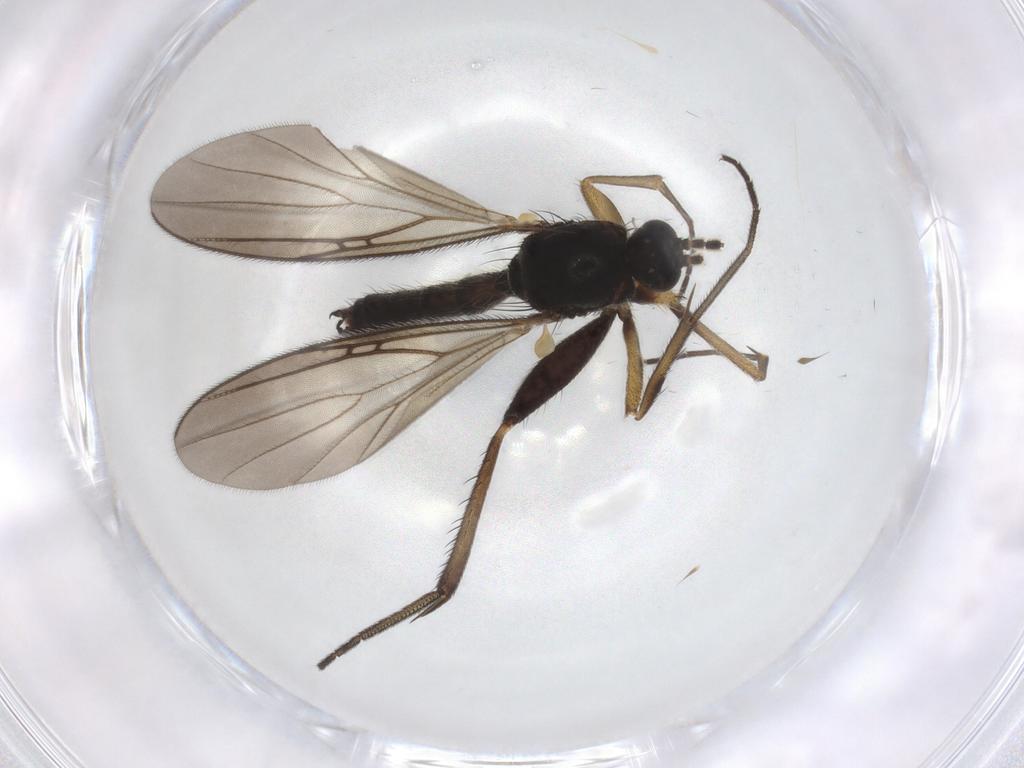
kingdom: Animalia
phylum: Arthropoda
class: Insecta
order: Diptera
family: Mycetophilidae
